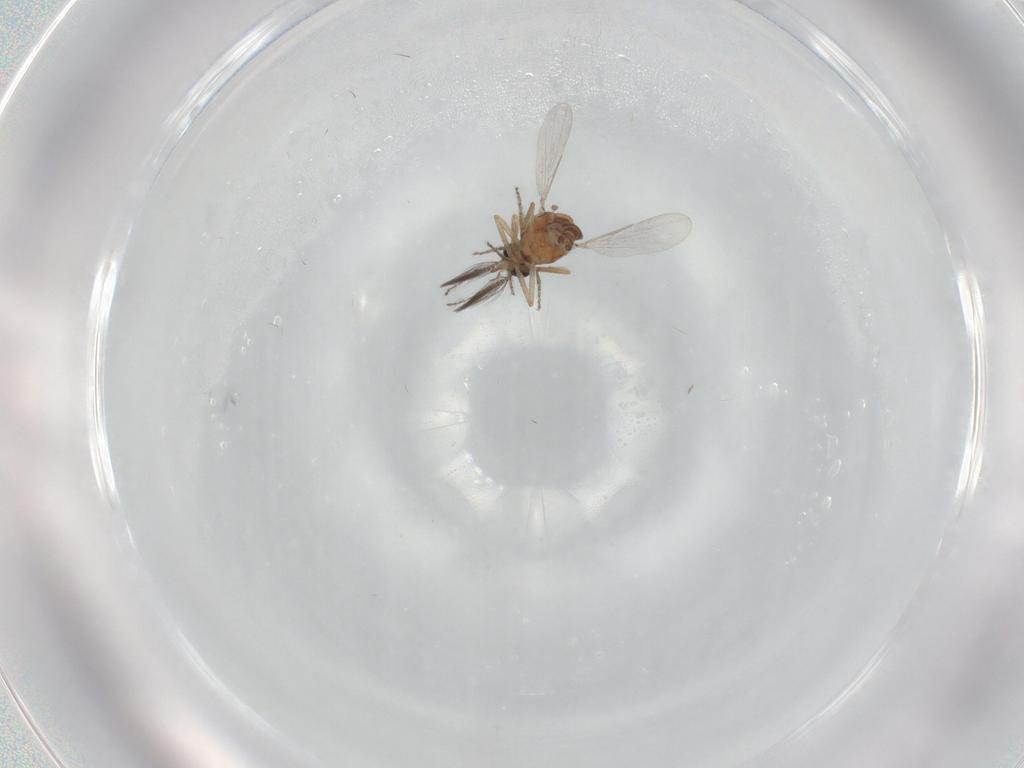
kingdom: Animalia
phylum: Arthropoda
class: Insecta
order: Diptera
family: Ceratopogonidae
